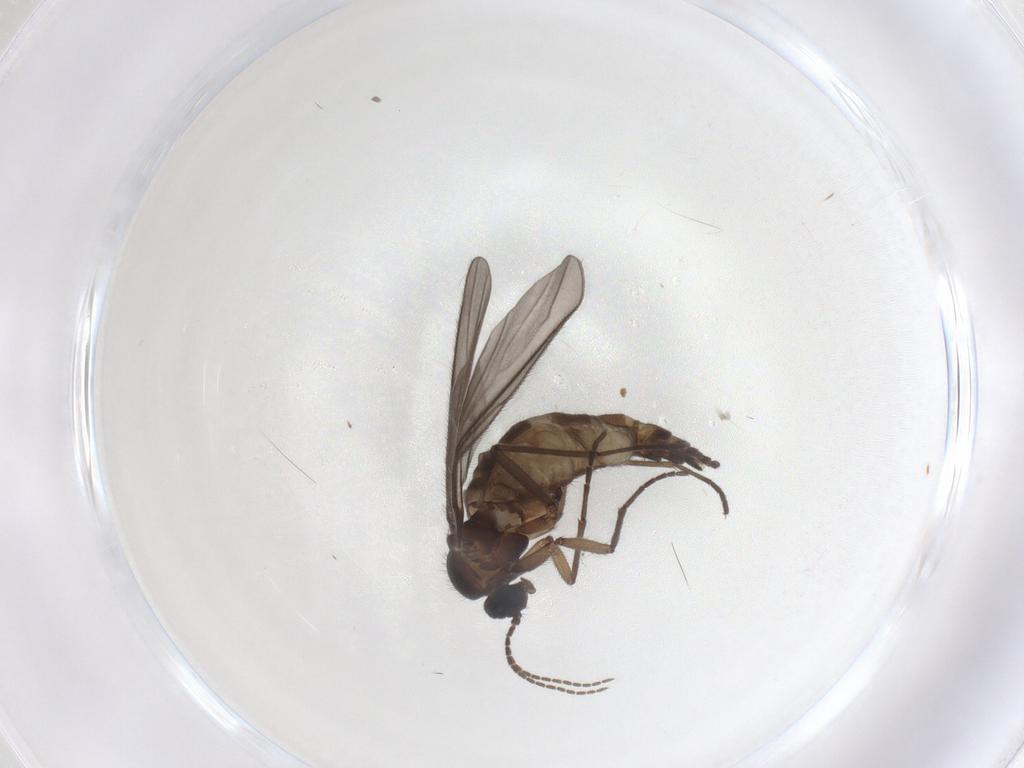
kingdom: Animalia
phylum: Arthropoda
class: Insecta
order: Diptera
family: Sciaridae
